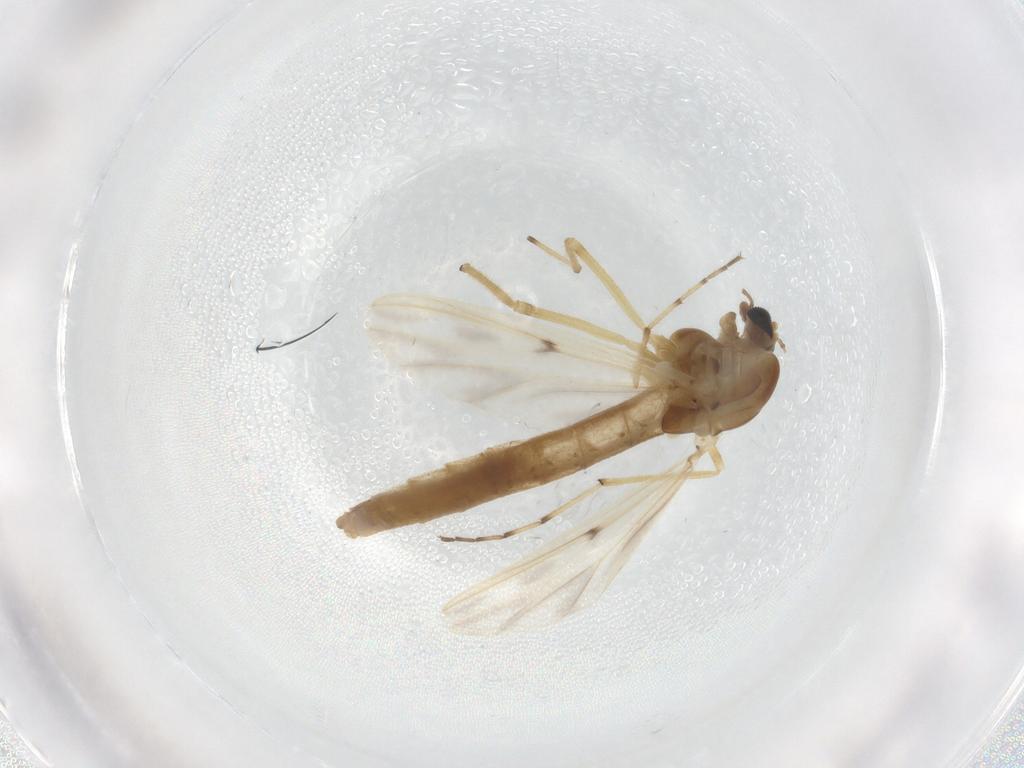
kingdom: Animalia
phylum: Arthropoda
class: Insecta
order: Diptera
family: Chironomidae
